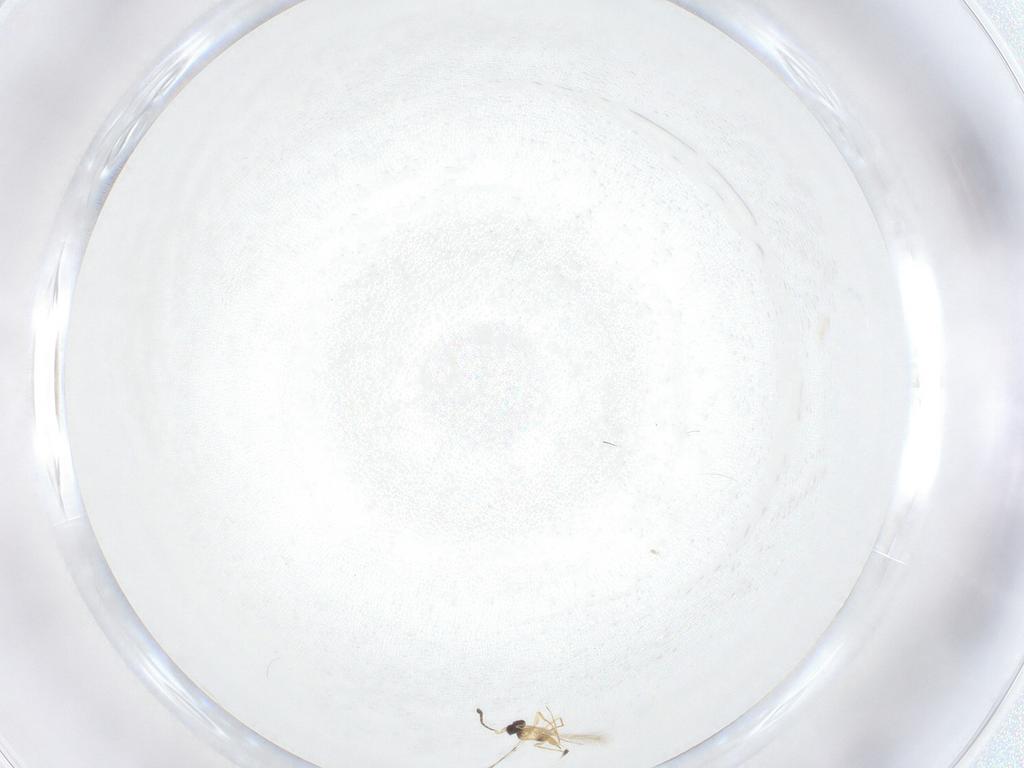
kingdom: Animalia
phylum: Arthropoda
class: Insecta
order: Hymenoptera
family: Mymaridae
